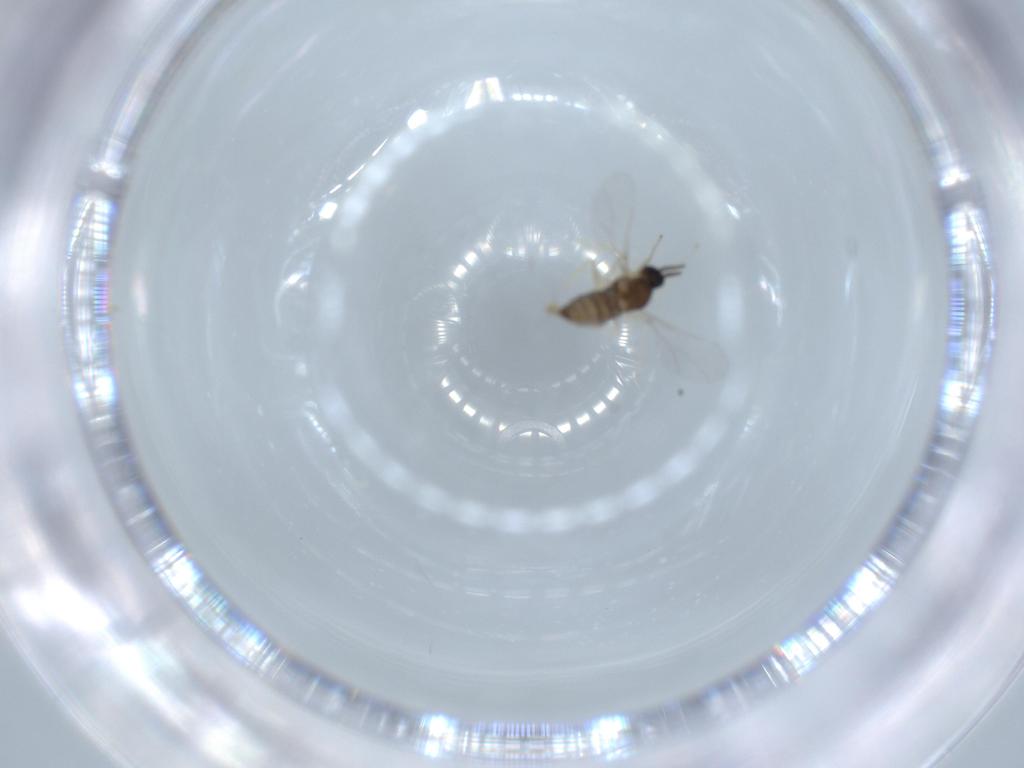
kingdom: Animalia
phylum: Arthropoda
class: Insecta
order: Diptera
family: Cecidomyiidae
